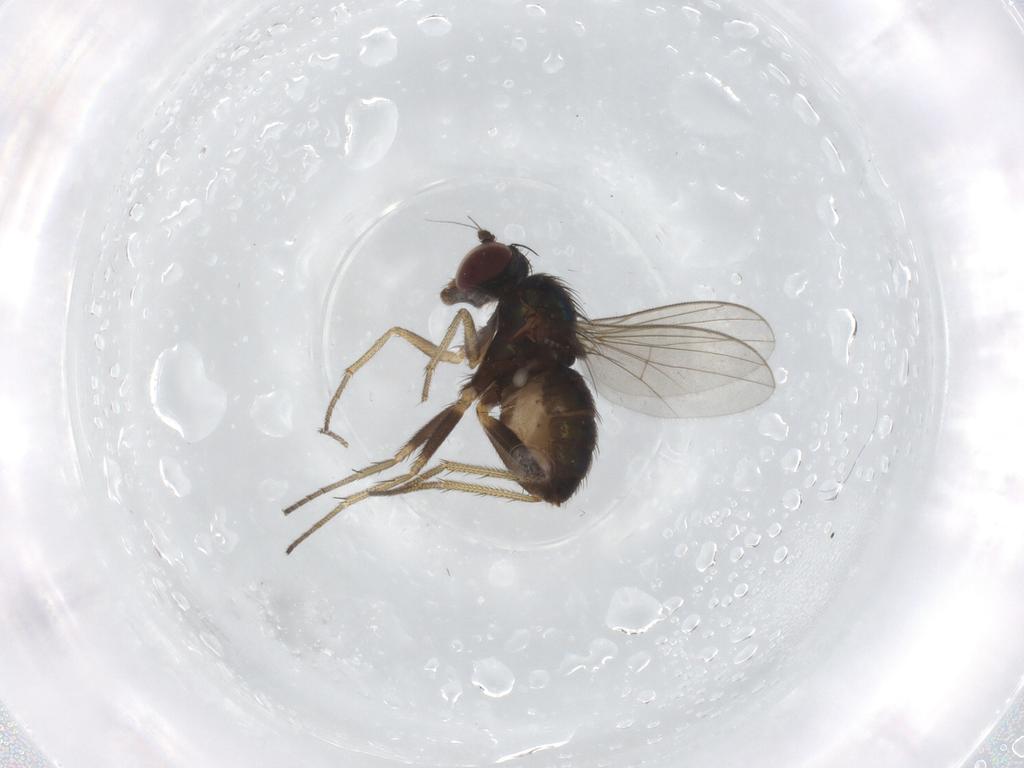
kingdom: Animalia
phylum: Arthropoda
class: Insecta
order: Diptera
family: Dolichopodidae
